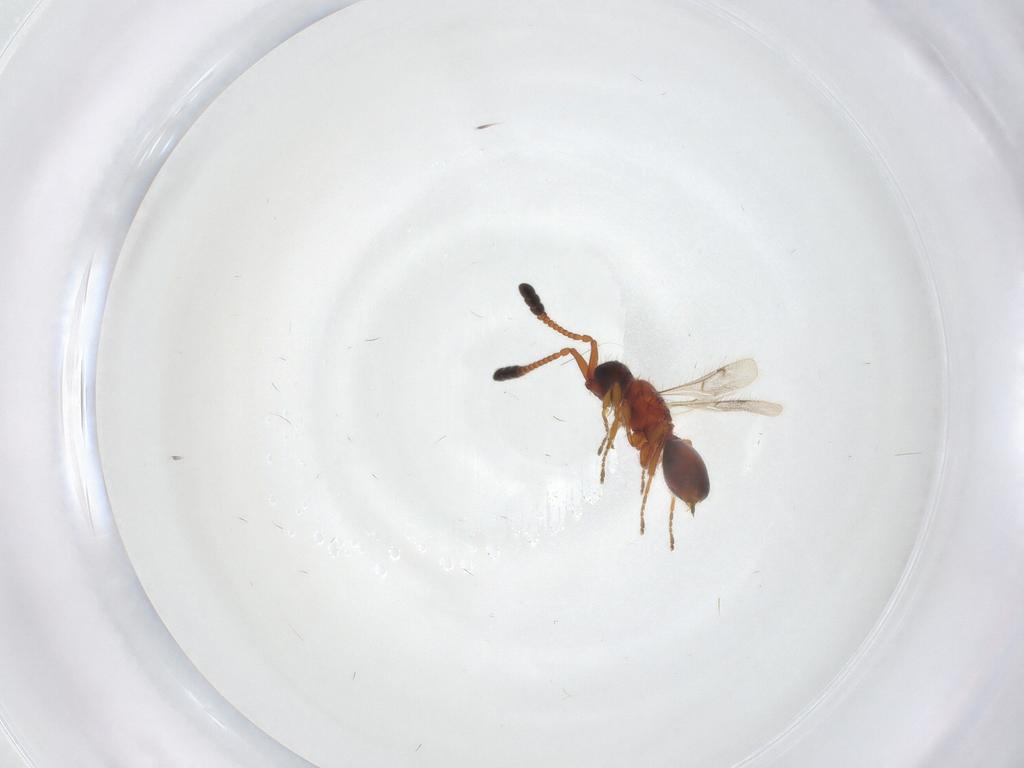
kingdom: Animalia
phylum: Arthropoda
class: Insecta
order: Hymenoptera
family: Diapriidae
